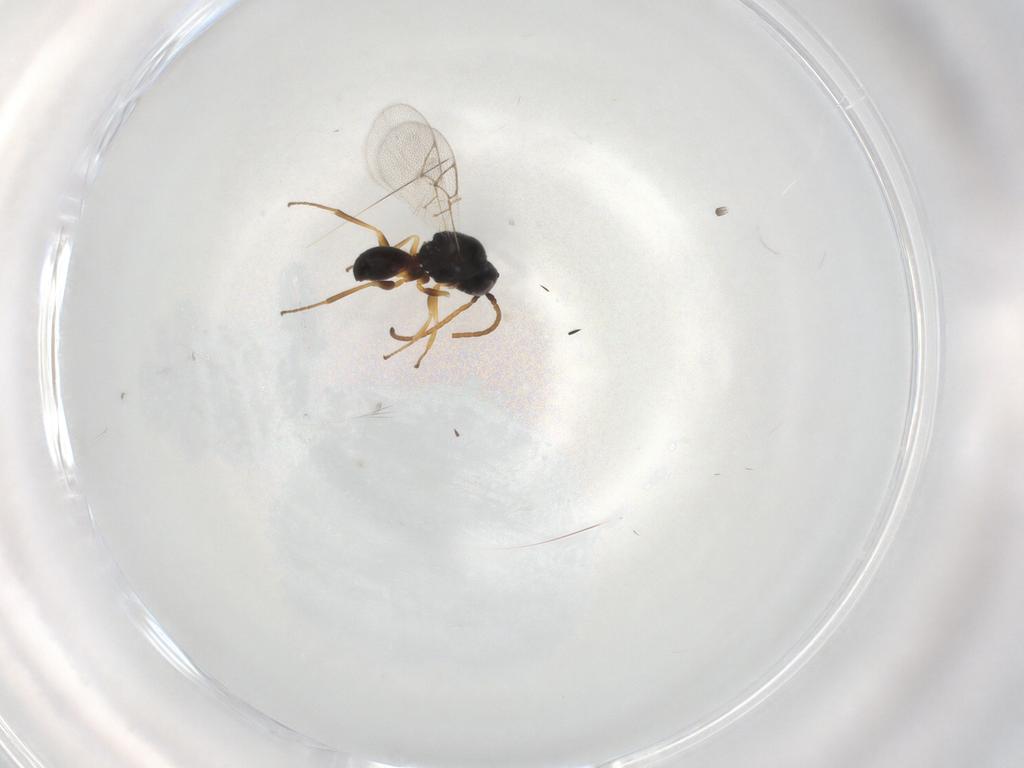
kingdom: Animalia
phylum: Arthropoda
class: Insecta
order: Hymenoptera
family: Figitidae
